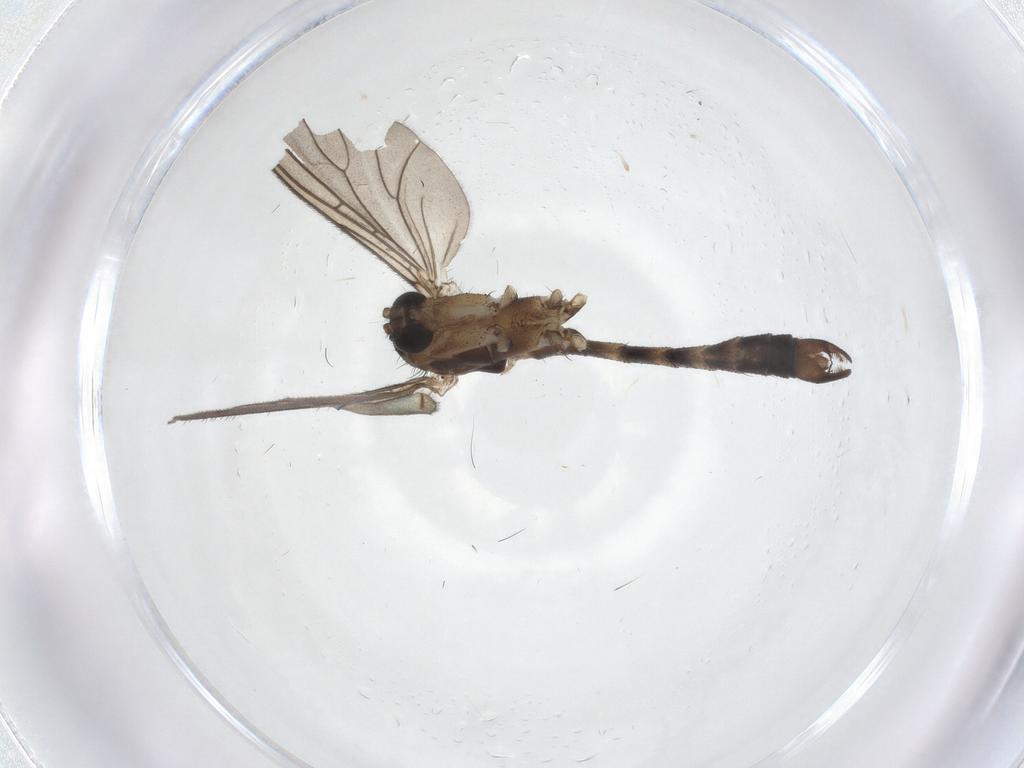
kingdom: Animalia
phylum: Arthropoda
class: Insecta
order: Diptera
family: Mycetophilidae
